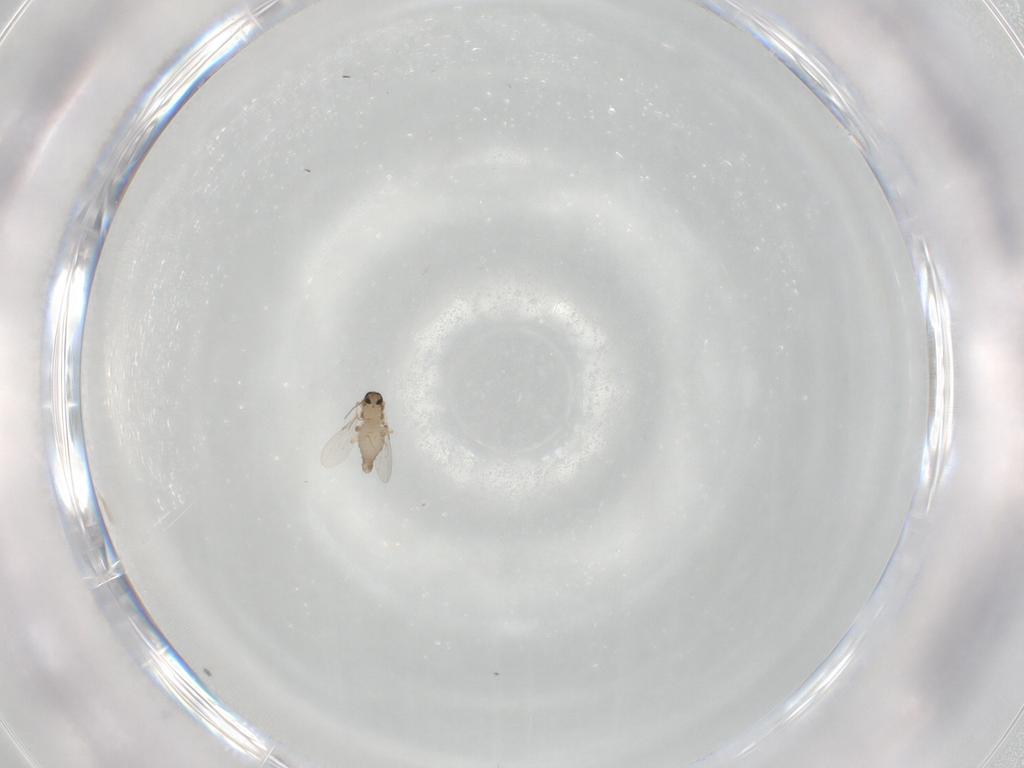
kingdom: Animalia
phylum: Arthropoda
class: Insecta
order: Diptera
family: Ceratopogonidae
